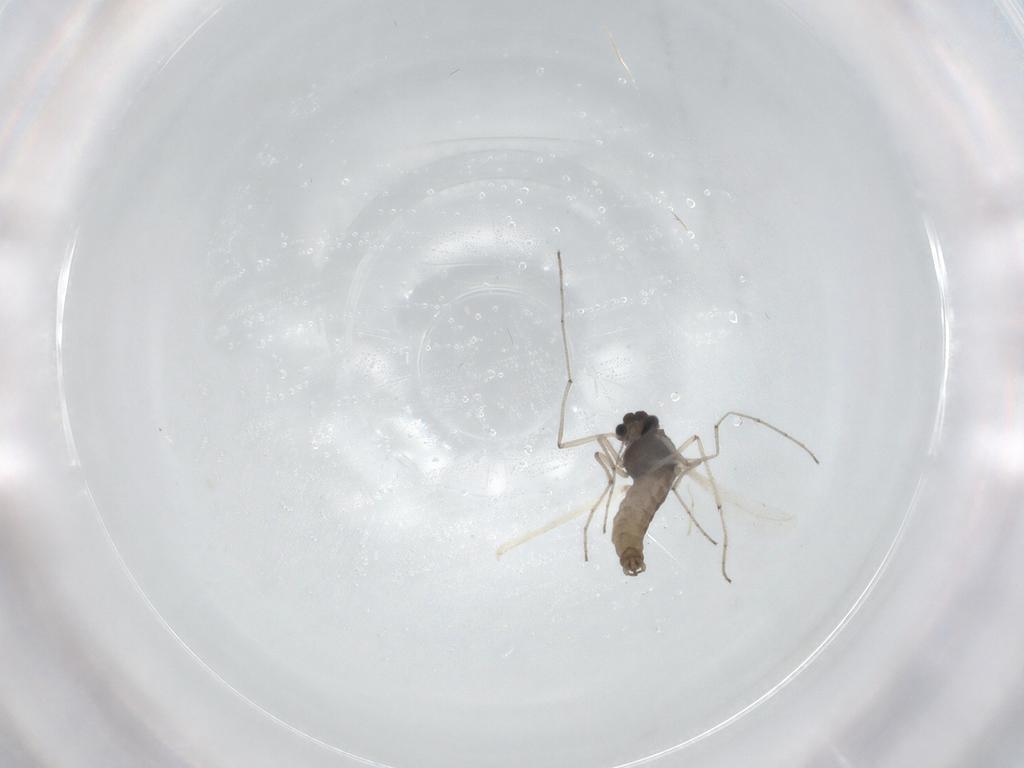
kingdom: Animalia
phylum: Arthropoda
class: Insecta
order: Diptera
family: Chironomidae
